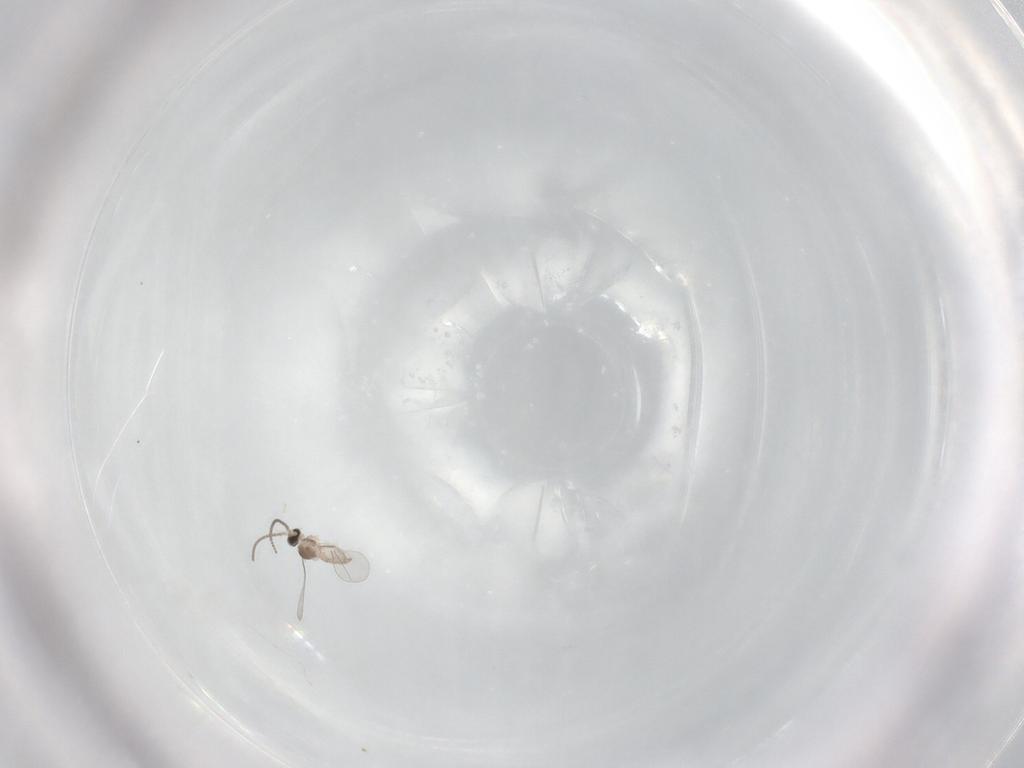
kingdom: Animalia
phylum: Arthropoda
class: Insecta
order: Diptera
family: Cecidomyiidae
